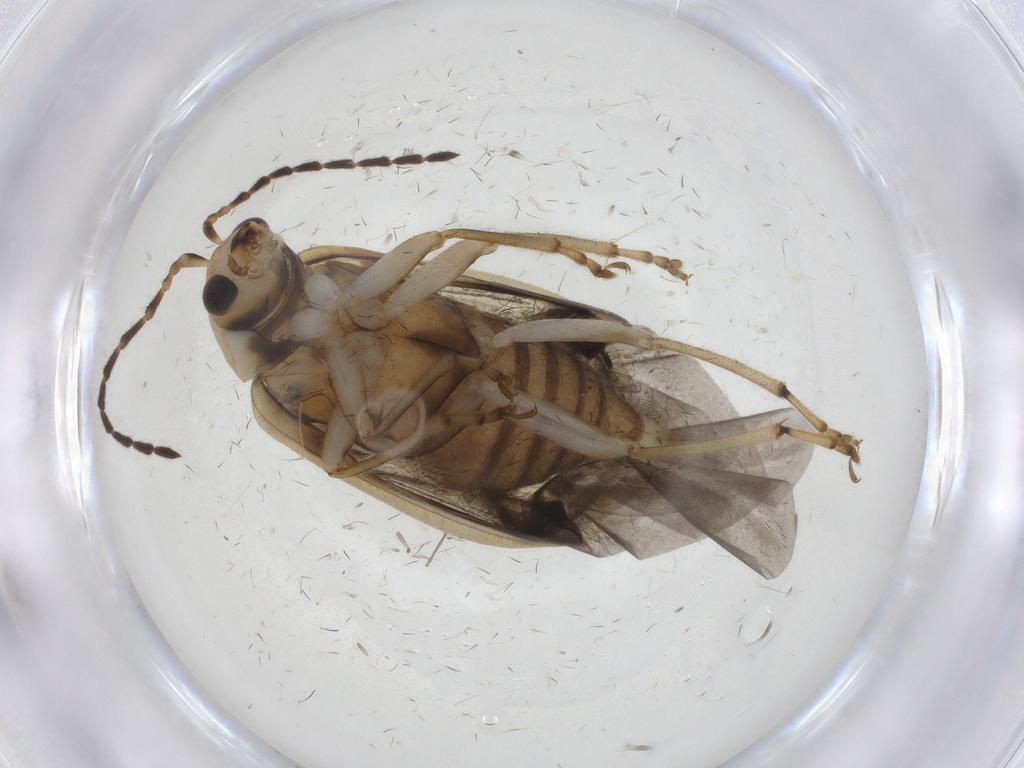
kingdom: Animalia
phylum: Arthropoda
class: Insecta
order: Coleoptera
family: Chrysomelidae
